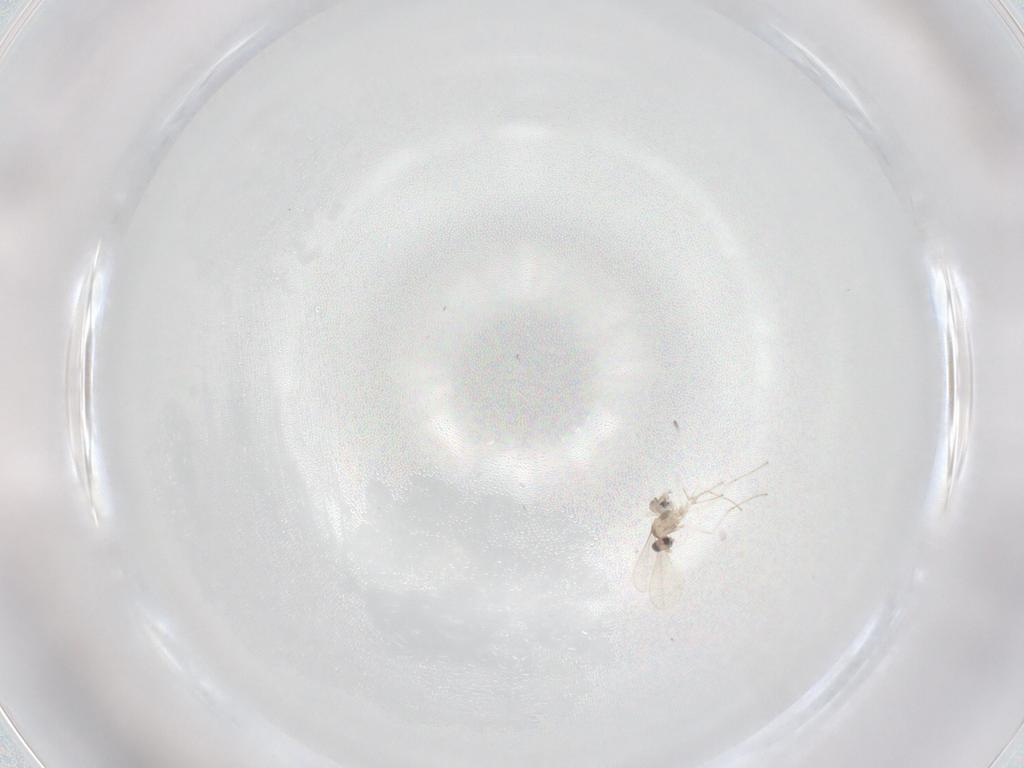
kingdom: Animalia
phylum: Arthropoda
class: Insecta
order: Diptera
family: Cecidomyiidae
